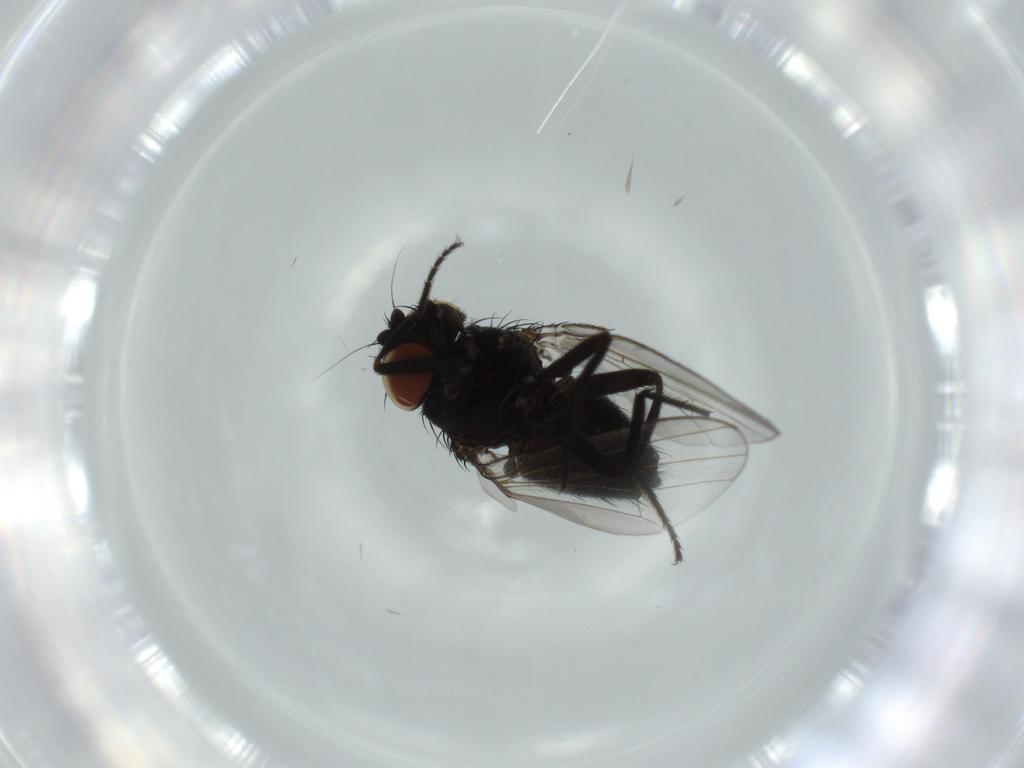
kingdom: Animalia
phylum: Arthropoda
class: Insecta
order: Diptera
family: Milichiidae
